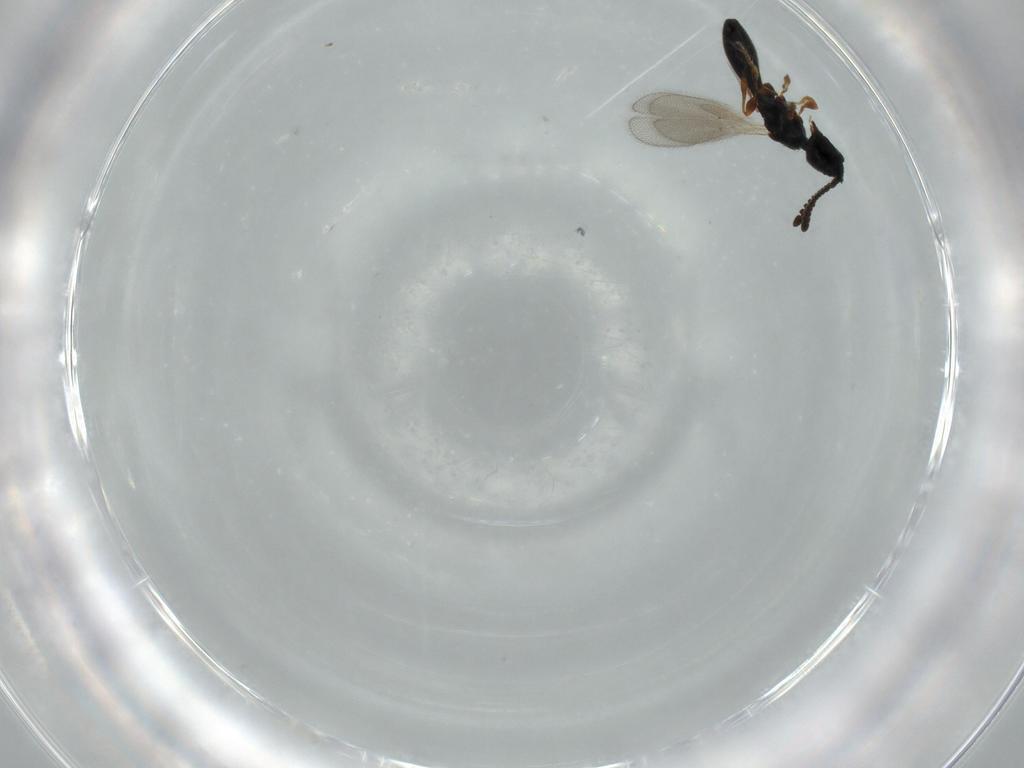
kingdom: Animalia
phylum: Arthropoda
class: Insecta
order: Hymenoptera
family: Diapriidae
